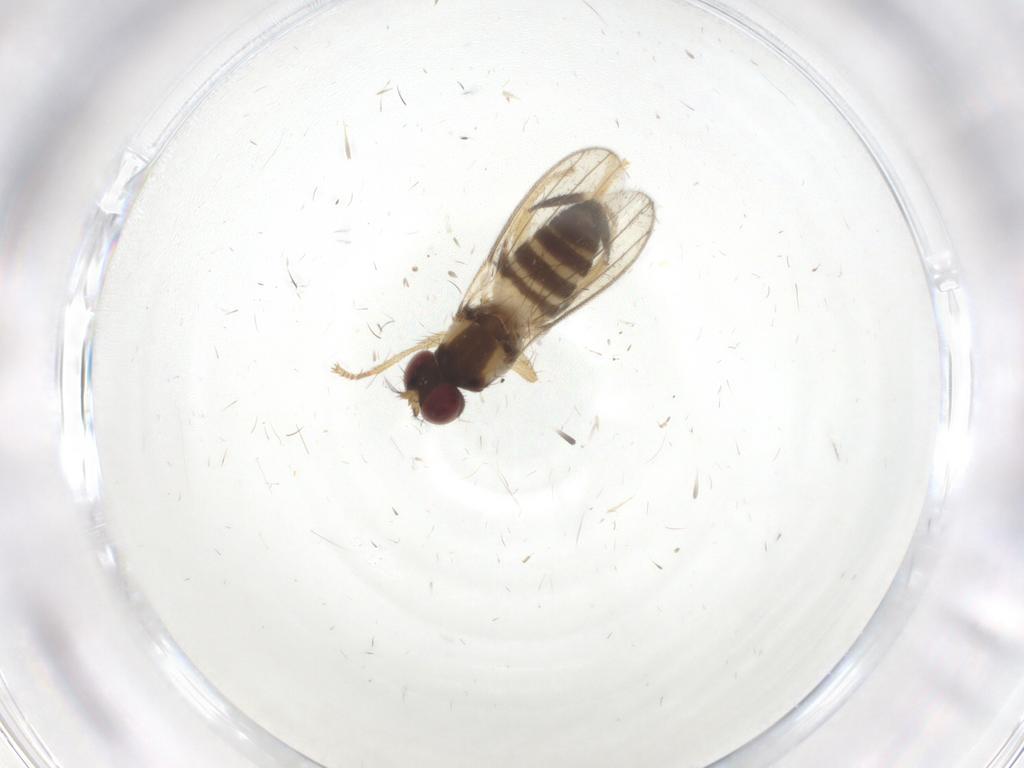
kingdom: Animalia
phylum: Arthropoda
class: Insecta
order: Diptera
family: Periscelididae
